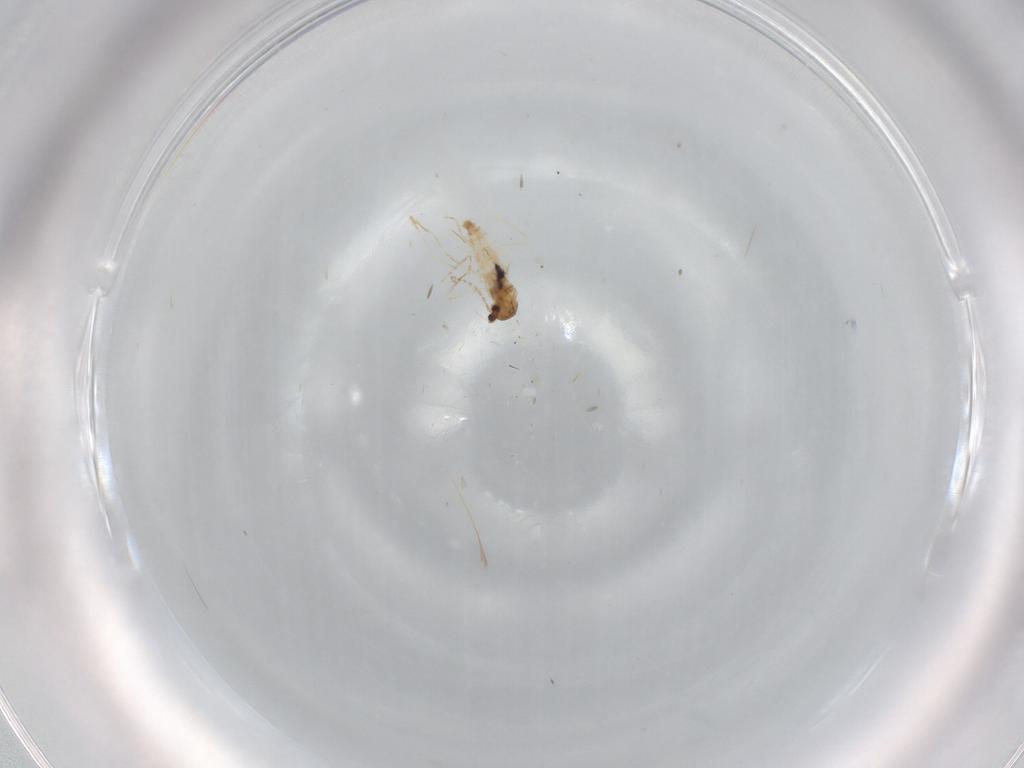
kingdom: Animalia
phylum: Arthropoda
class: Insecta
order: Diptera
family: Cecidomyiidae
